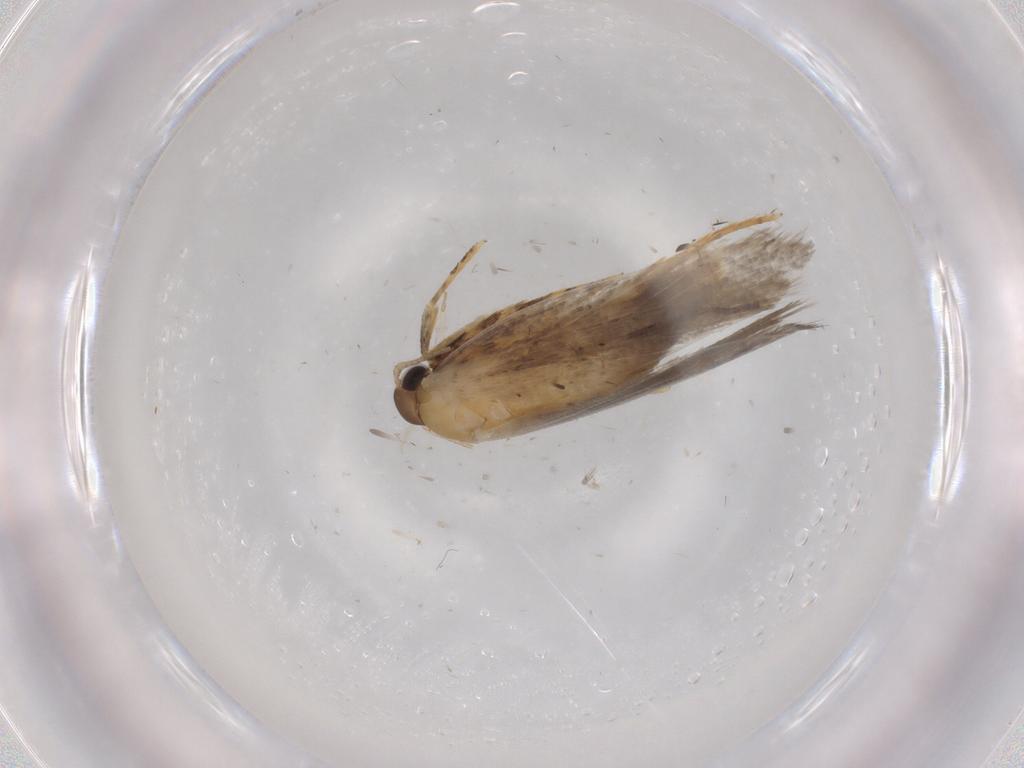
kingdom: Animalia
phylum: Arthropoda
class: Insecta
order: Lepidoptera
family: Autostichidae
